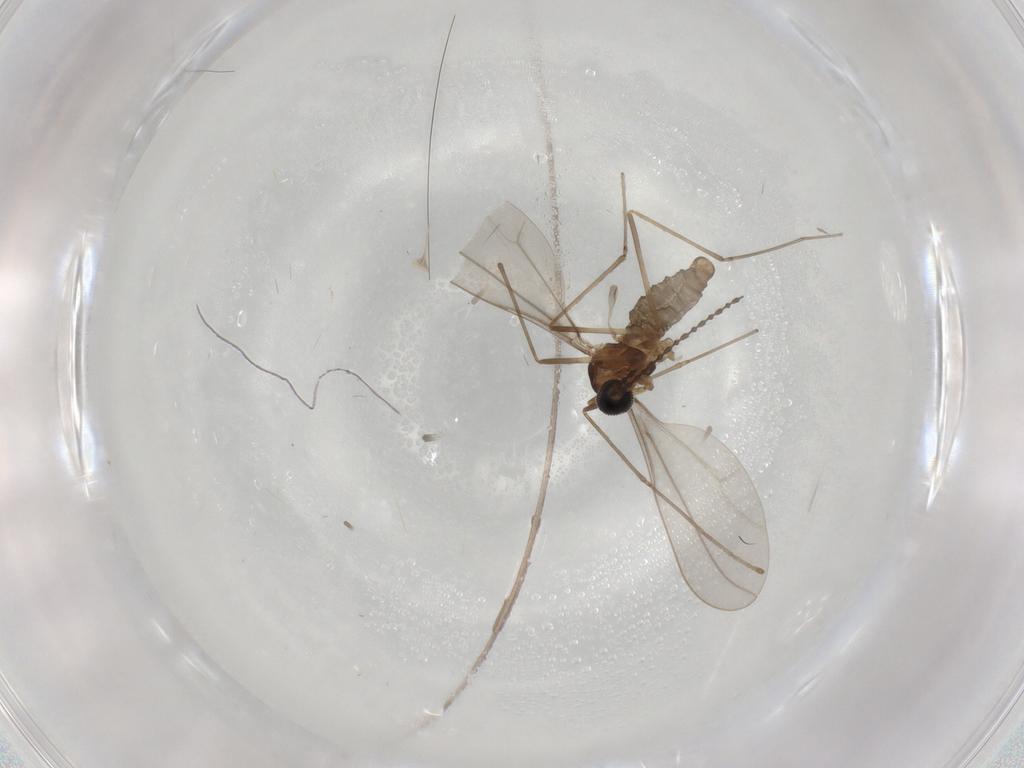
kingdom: Animalia
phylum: Arthropoda
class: Insecta
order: Diptera
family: Cecidomyiidae
